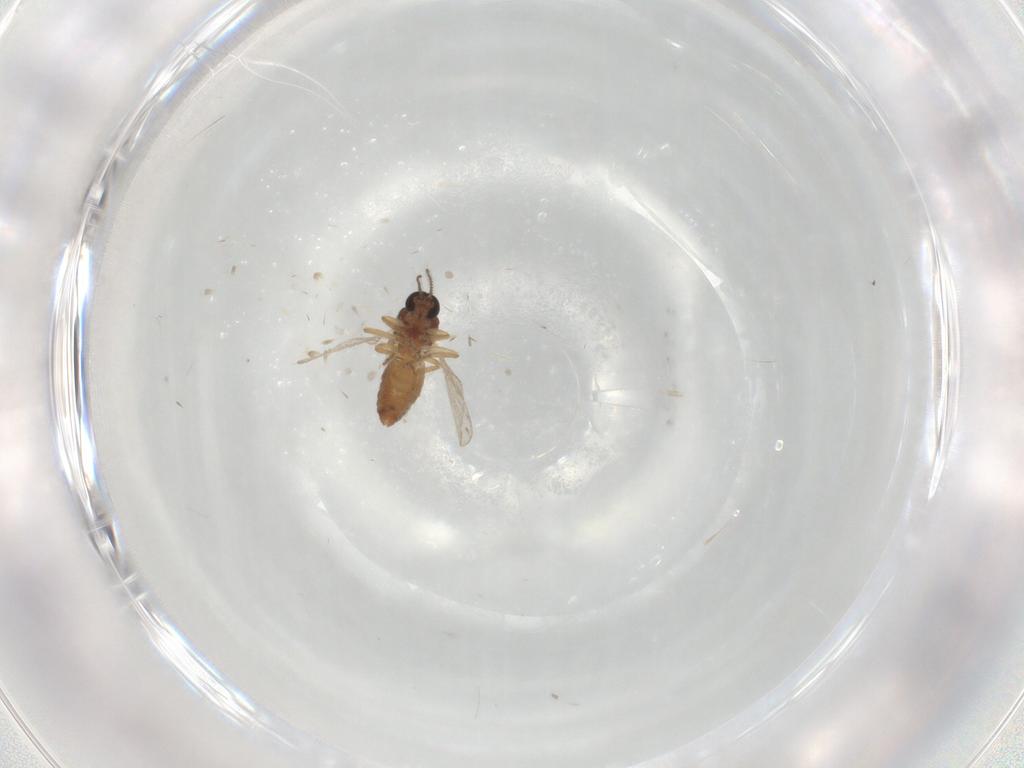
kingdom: Animalia
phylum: Arthropoda
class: Insecta
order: Diptera
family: Ceratopogonidae
